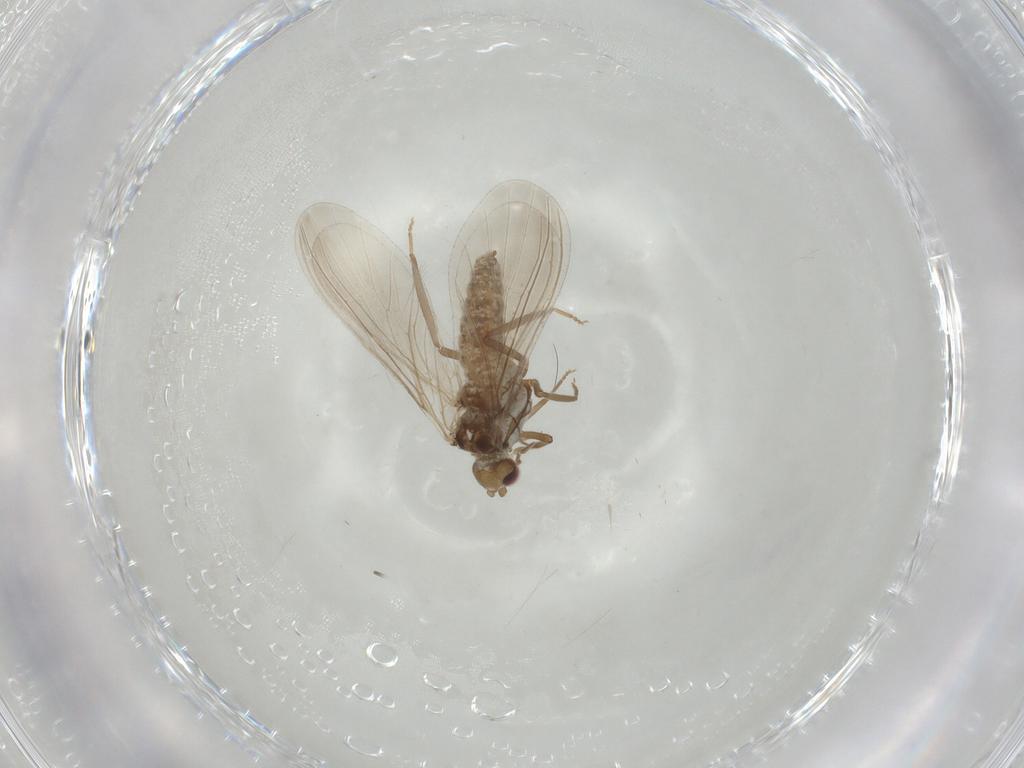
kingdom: Animalia
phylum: Arthropoda
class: Insecta
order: Neuroptera
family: Coniopterygidae
